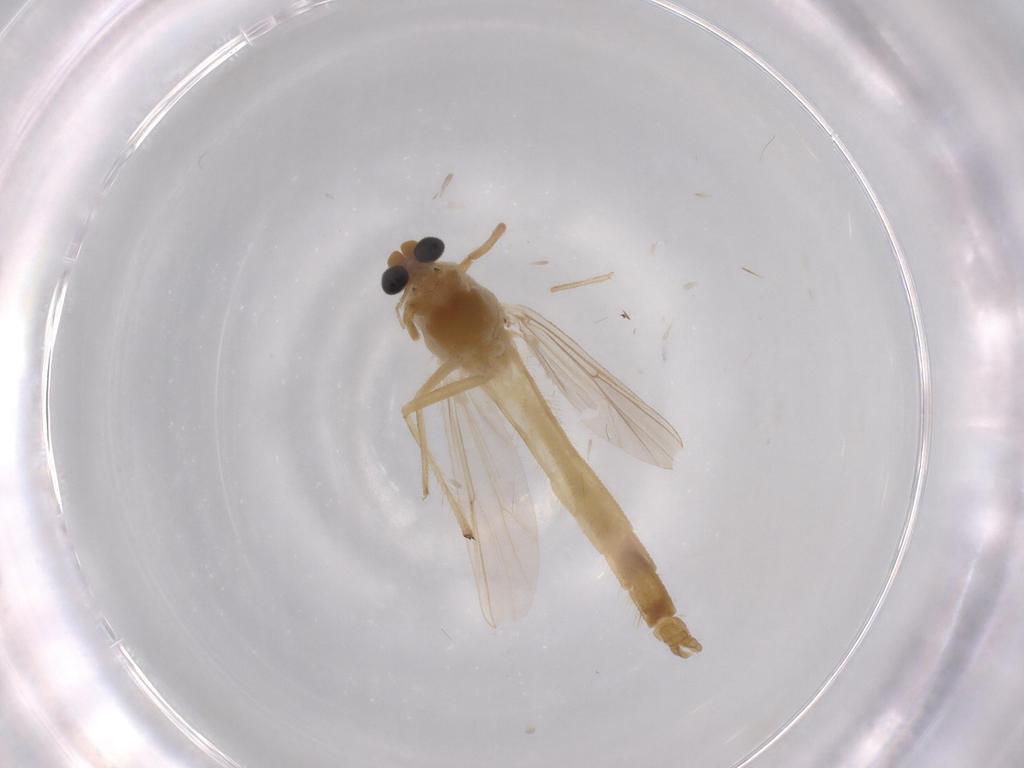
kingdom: Animalia
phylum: Arthropoda
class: Insecta
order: Diptera
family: Chironomidae
